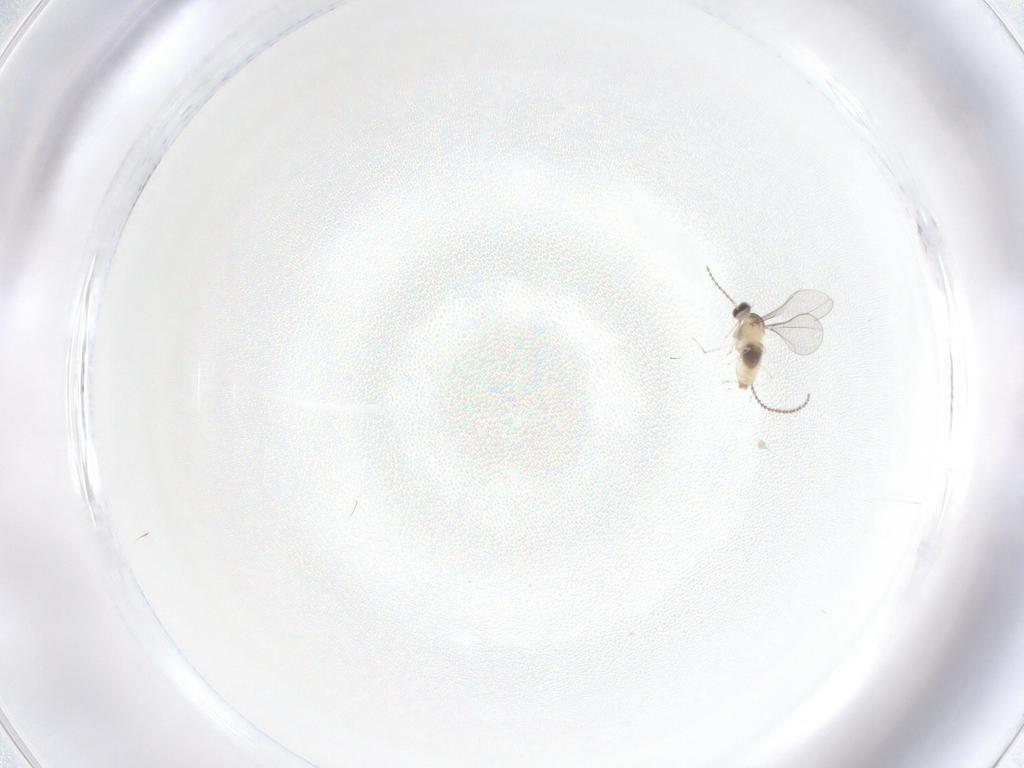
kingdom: Animalia
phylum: Arthropoda
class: Insecta
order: Diptera
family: Cecidomyiidae
